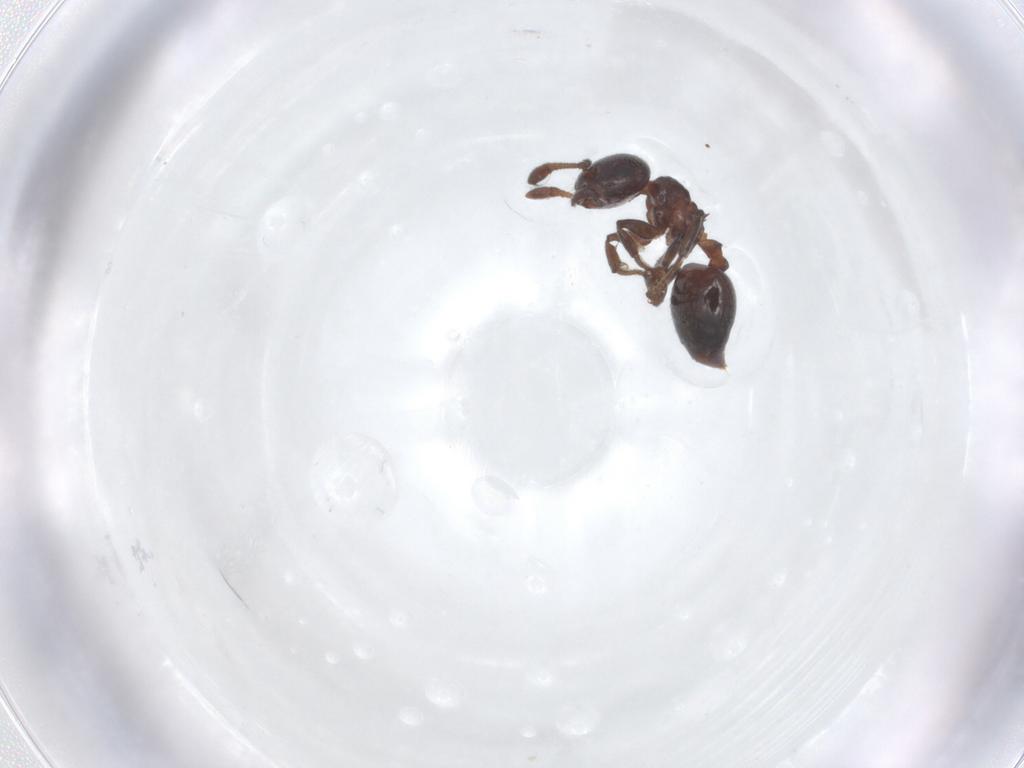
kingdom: Animalia
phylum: Arthropoda
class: Insecta
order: Hymenoptera
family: Formicidae
